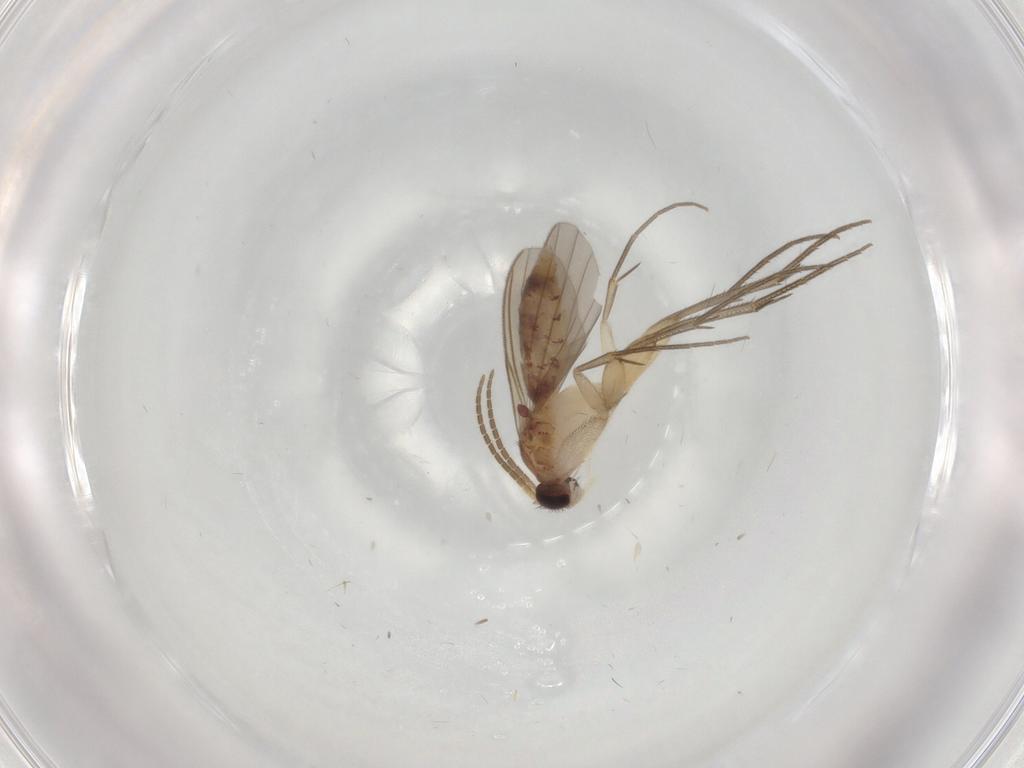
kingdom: Animalia
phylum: Arthropoda
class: Insecta
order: Diptera
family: Mycetophilidae
